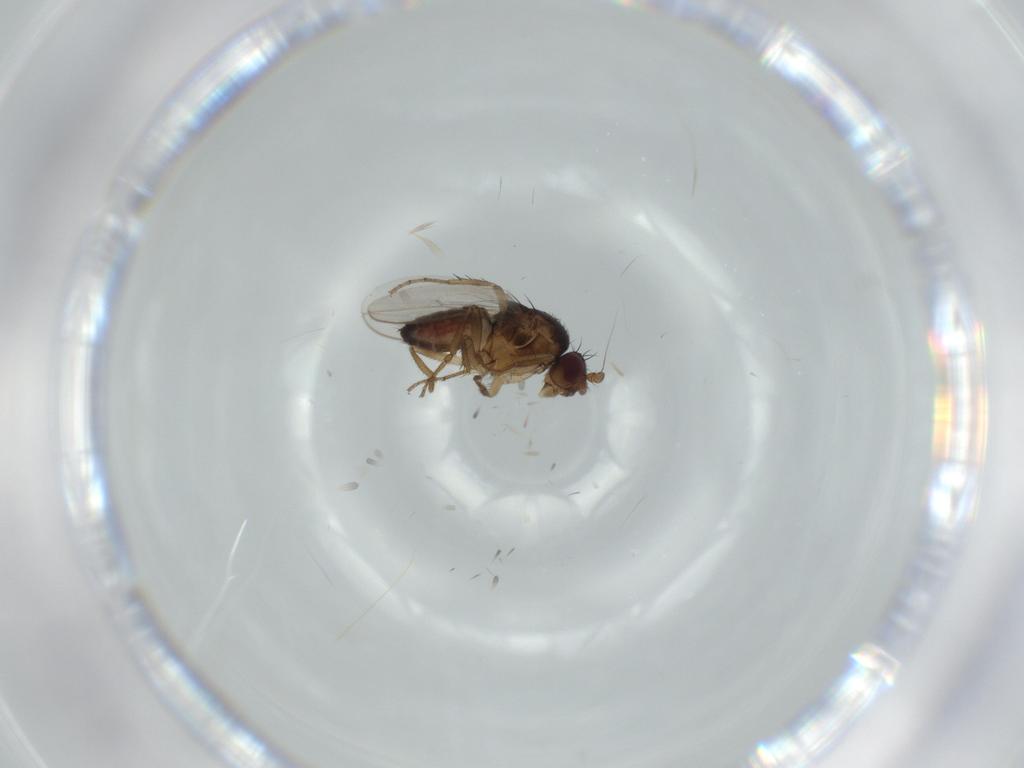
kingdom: Animalia
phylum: Arthropoda
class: Insecta
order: Diptera
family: Sphaeroceridae
